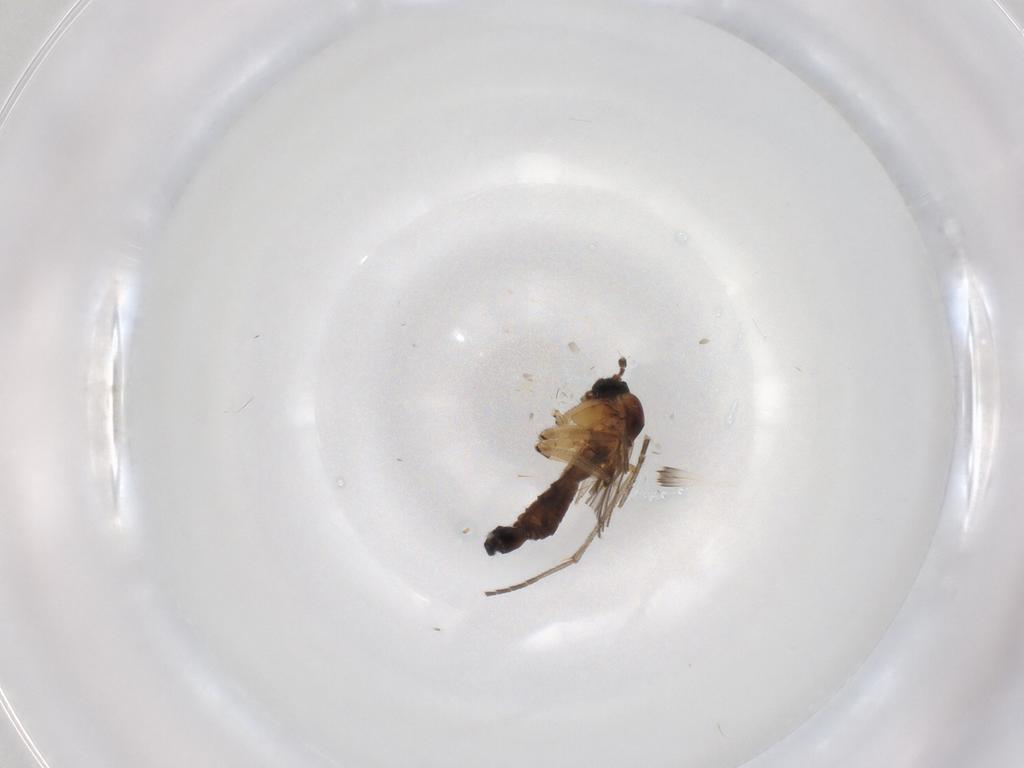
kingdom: Animalia
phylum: Arthropoda
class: Insecta
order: Diptera
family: Sciaridae
